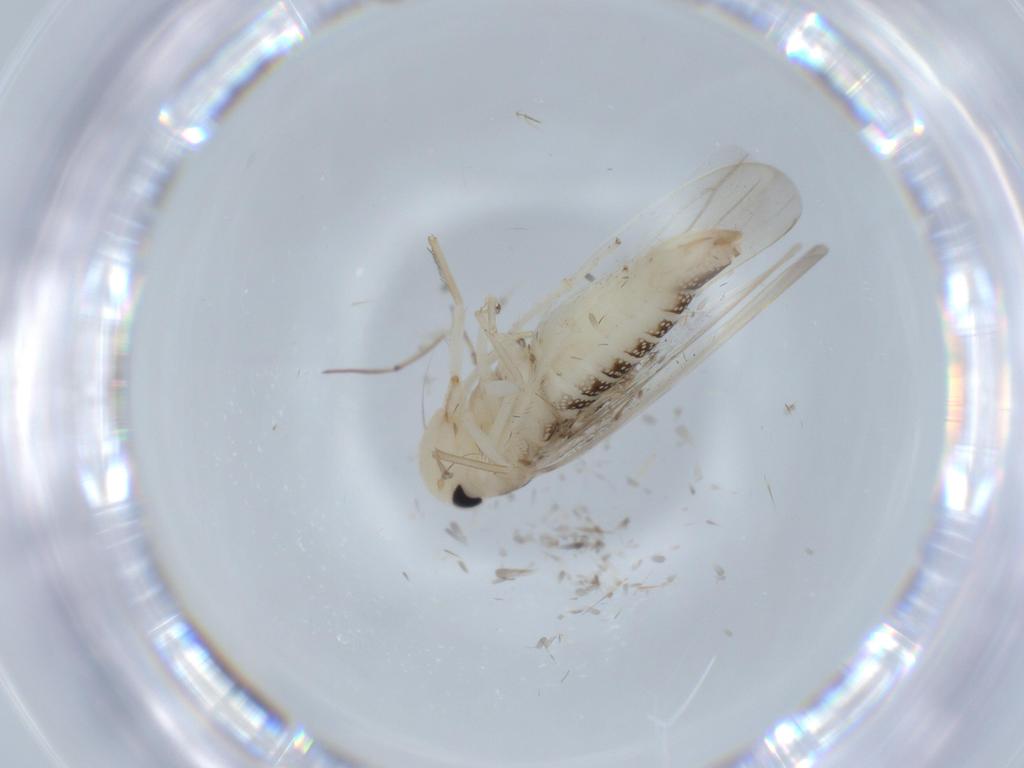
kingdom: Animalia
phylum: Arthropoda
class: Insecta
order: Hemiptera
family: Cicadellidae
